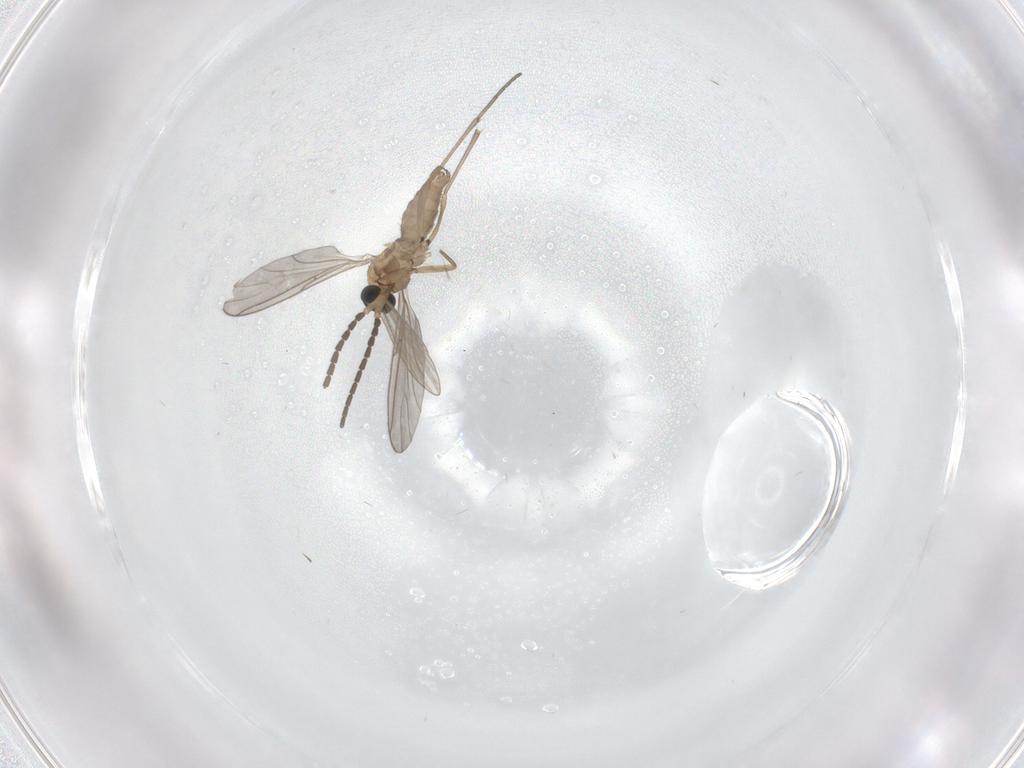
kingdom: Animalia
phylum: Arthropoda
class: Insecta
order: Diptera
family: Sciaridae
